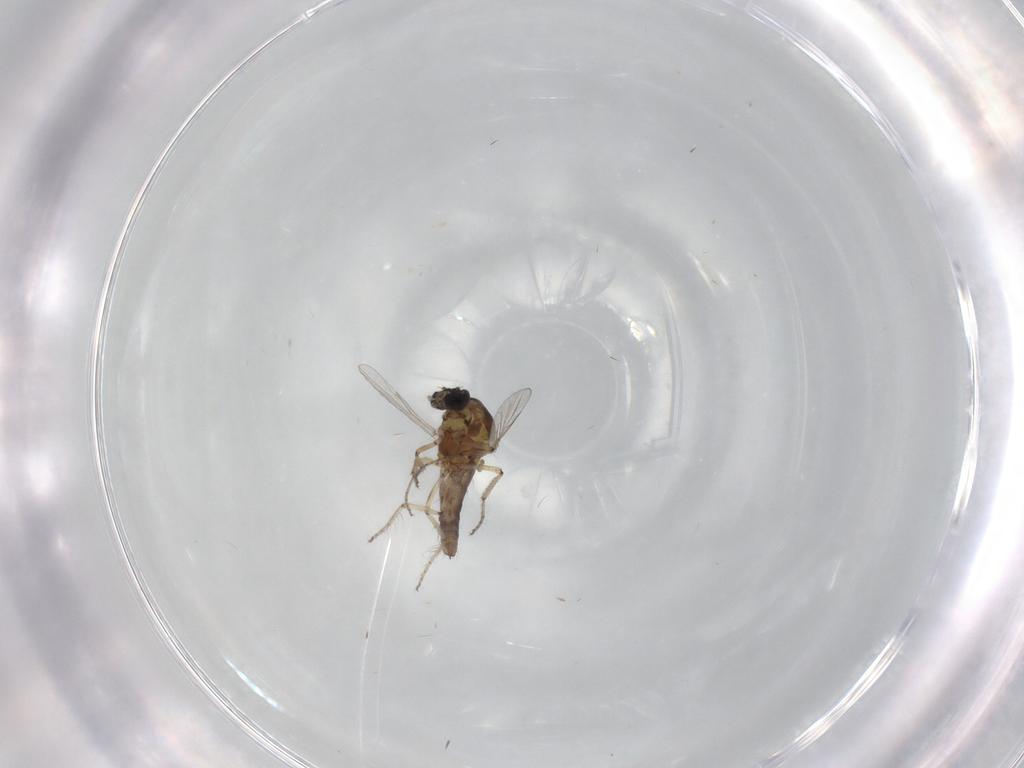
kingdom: Animalia
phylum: Arthropoda
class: Insecta
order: Diptera
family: Ceratopogonidae
